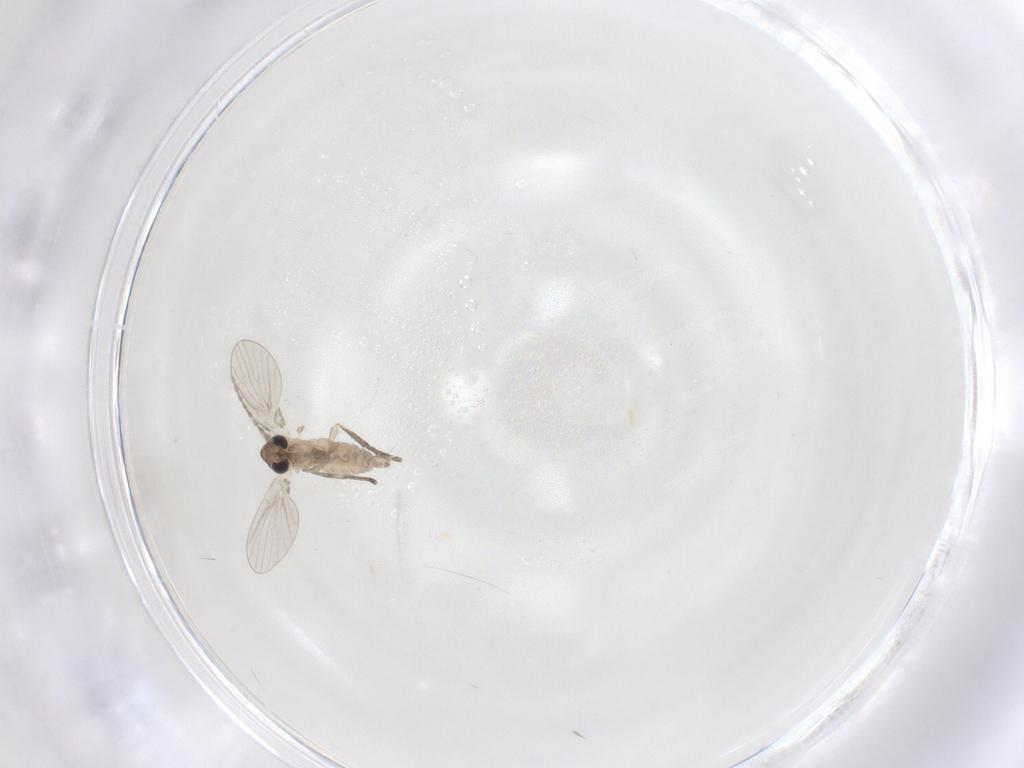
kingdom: Animalia
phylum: Arthropoda
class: Insecta
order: Diptera
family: Psychodidae
